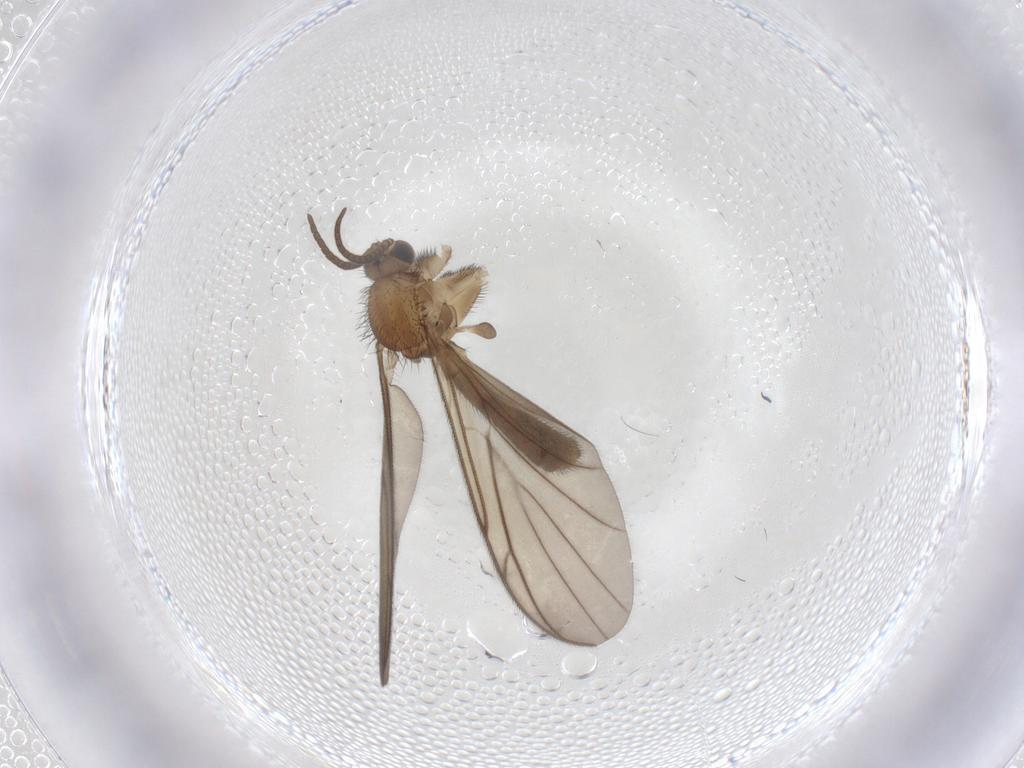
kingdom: Animalia
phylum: Arthropoda
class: Insecta
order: Diptera
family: Keroplatidae
